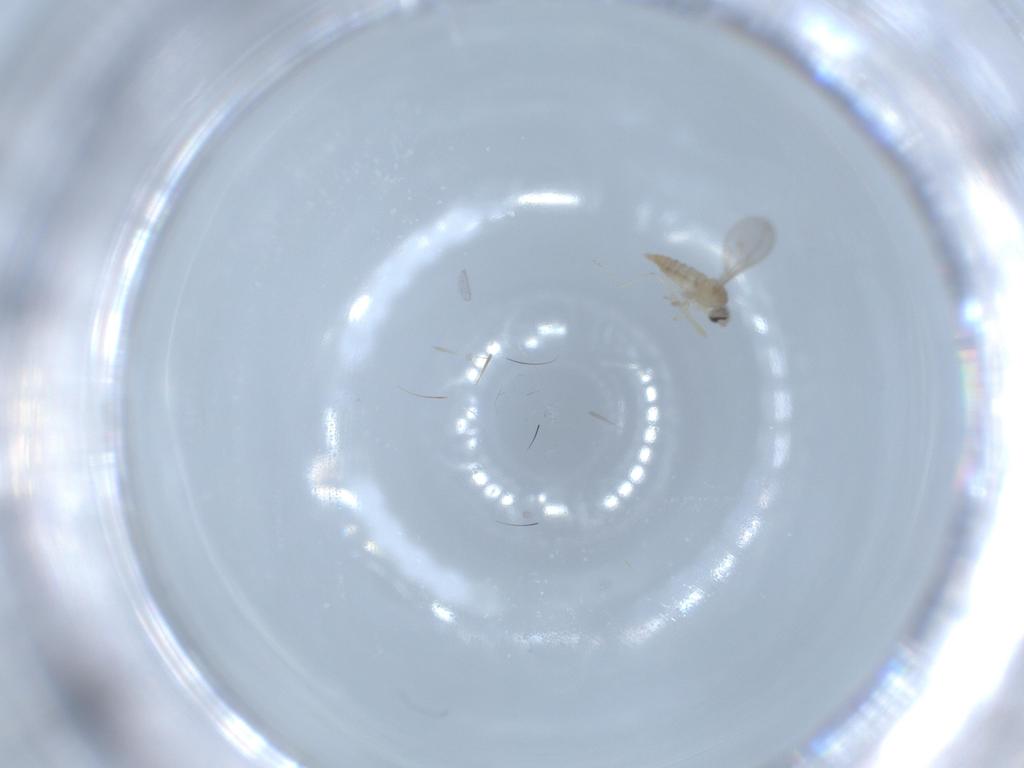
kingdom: Animalia
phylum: Arthropoda
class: Insecta
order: Diptera
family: Cecidomyiidae
